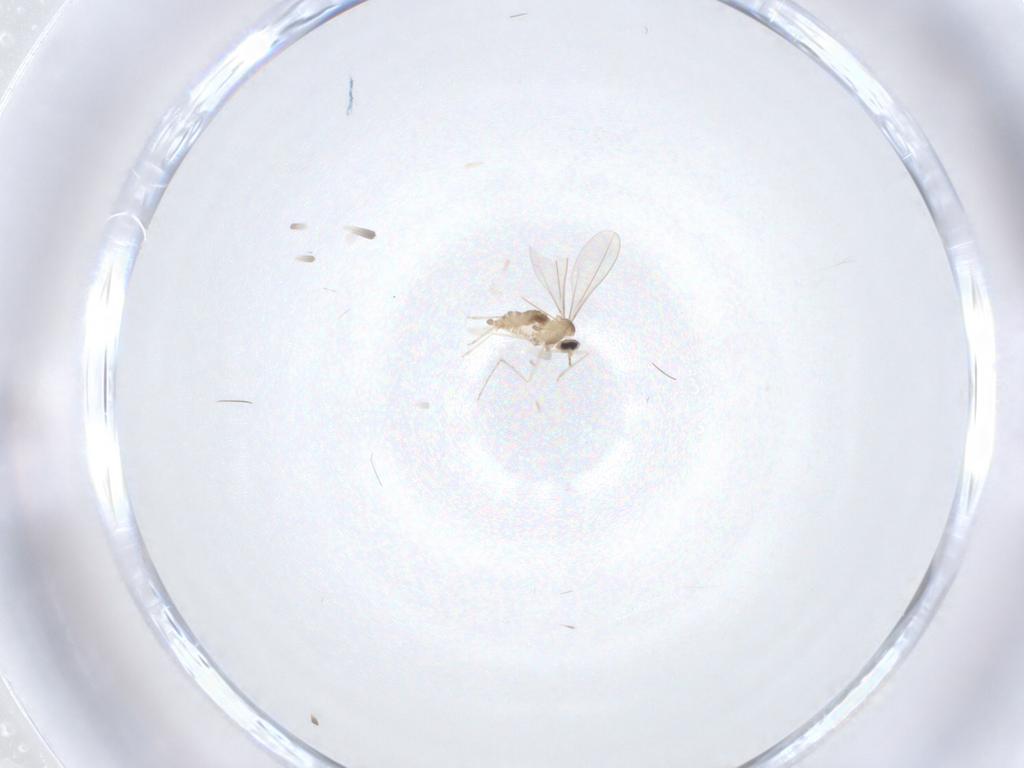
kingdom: Animalia
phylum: Arthropoda
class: Insecta
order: Diptera
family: Cecidomyiidae
